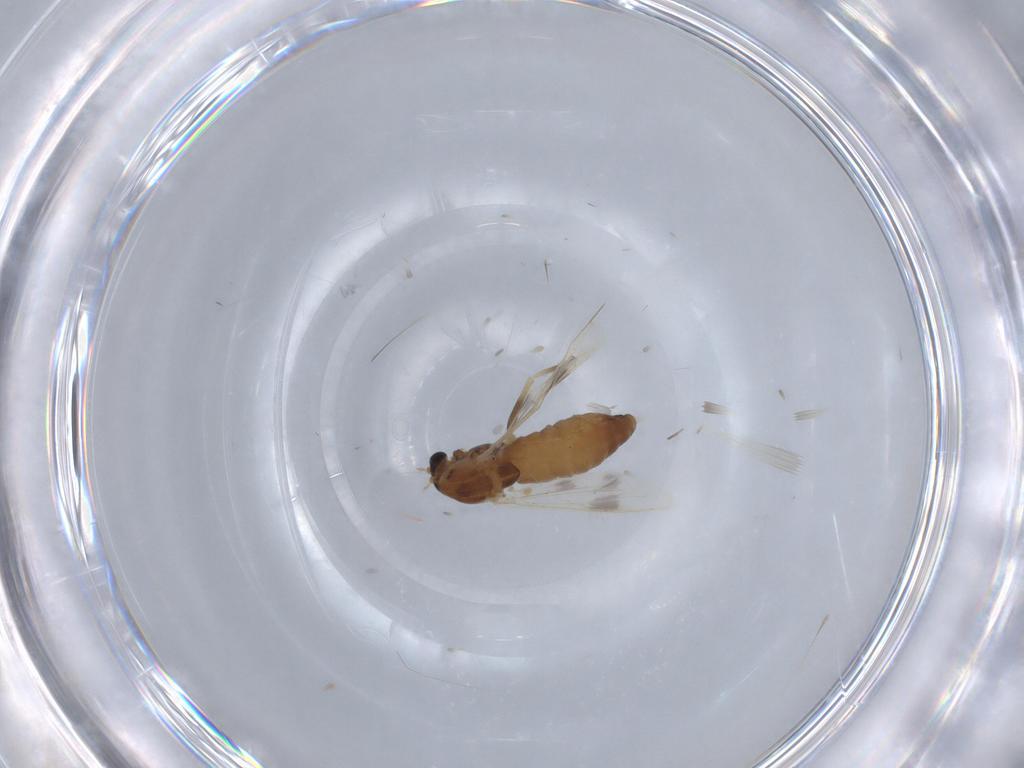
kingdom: Animalia
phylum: Arthropoda
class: Insecta
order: Diptera
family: Chironomidae
